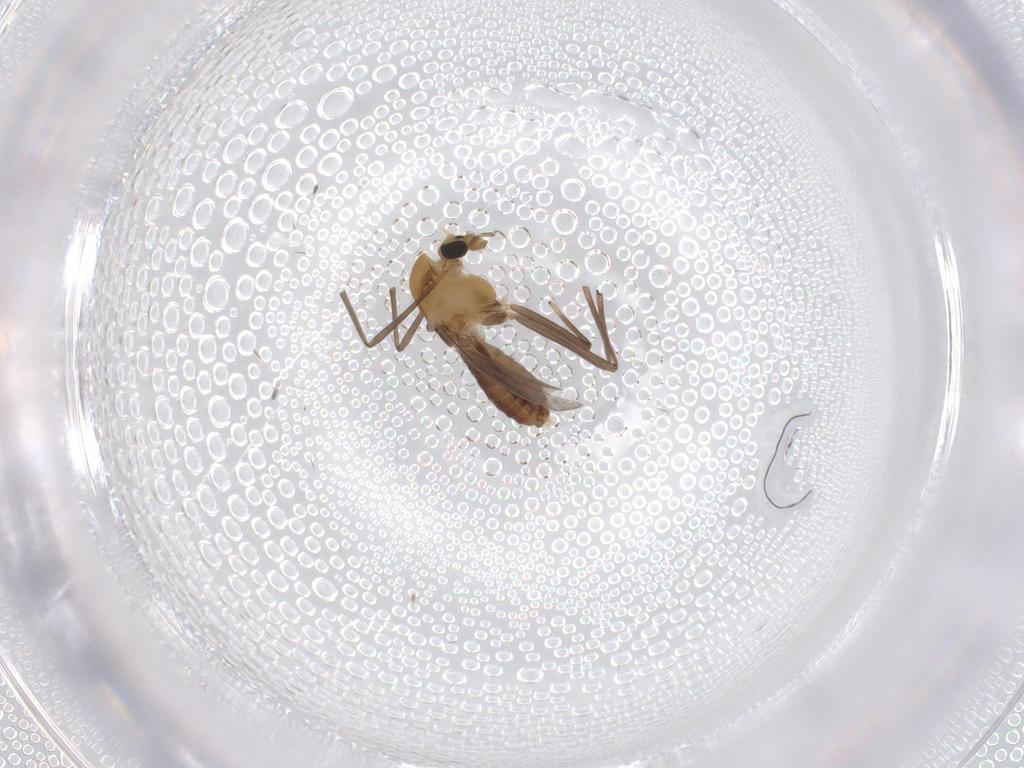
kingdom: Animalia
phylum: Arthropoda
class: Insecta
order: Diptera
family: Chironomidae
